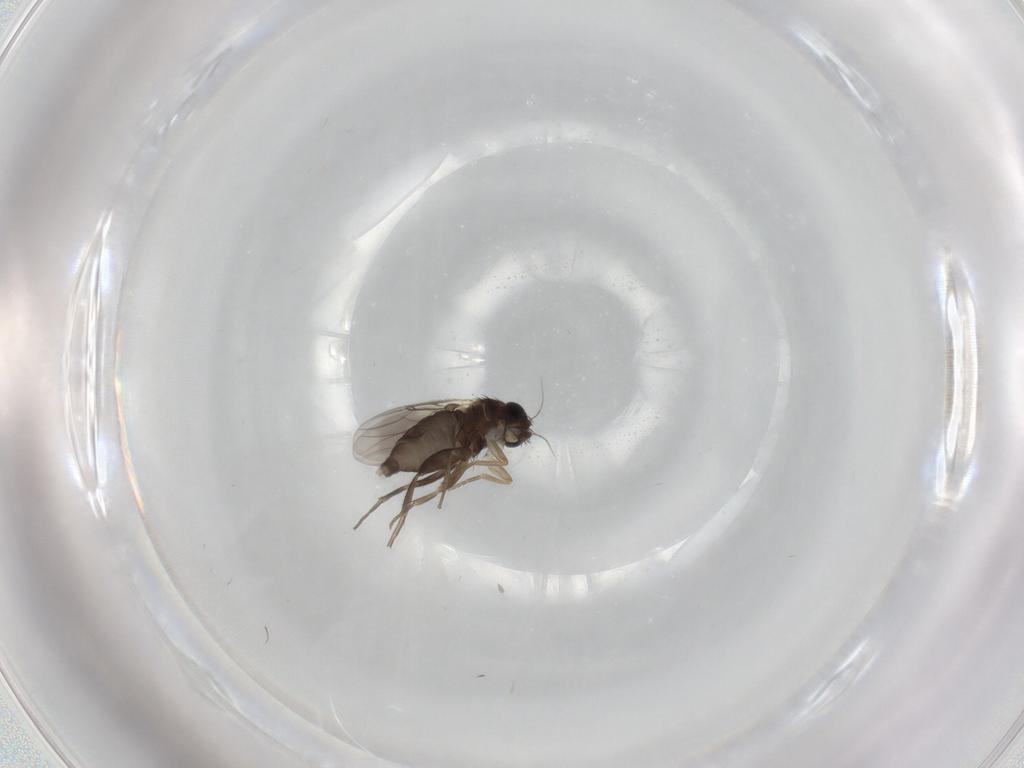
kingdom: Animalia
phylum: Arthropoda
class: Insecta
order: Diptera
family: Phoridae
